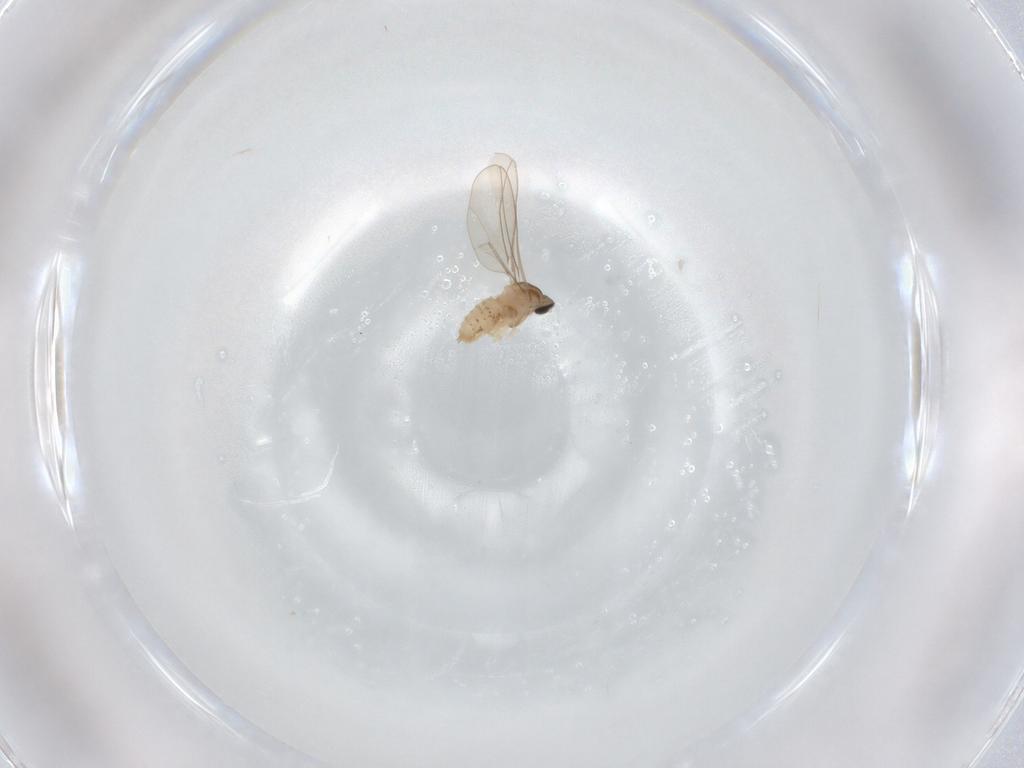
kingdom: Animalia
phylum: Arthropoda
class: Insecta
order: Diptera
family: Cecidomyiidae
